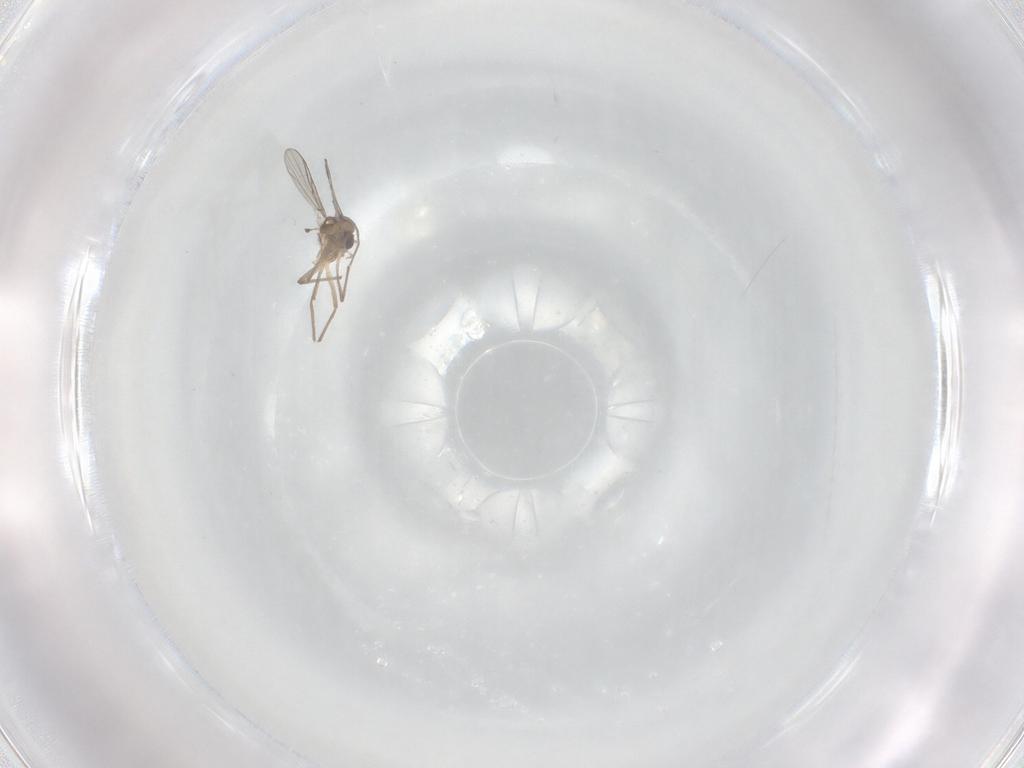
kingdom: Animalia
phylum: Arthropoda
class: Insecta
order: Diptera
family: Chironomidae
